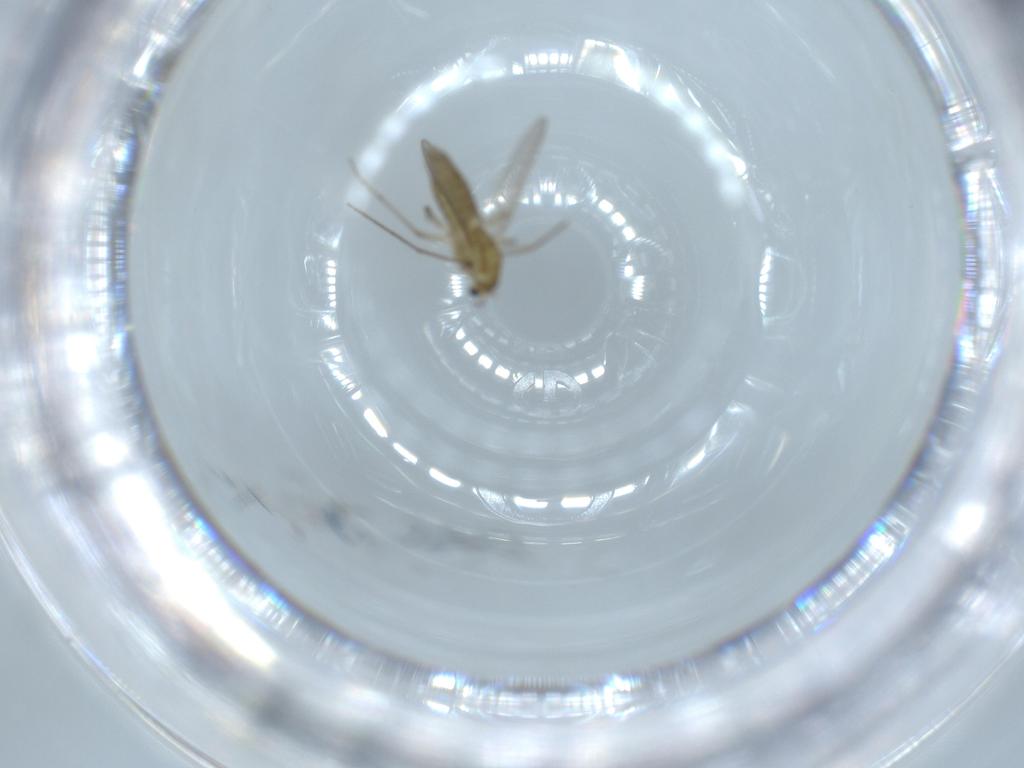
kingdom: Animalia
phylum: Arthropoda
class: Insecta
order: Diptera
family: Chironomidae
